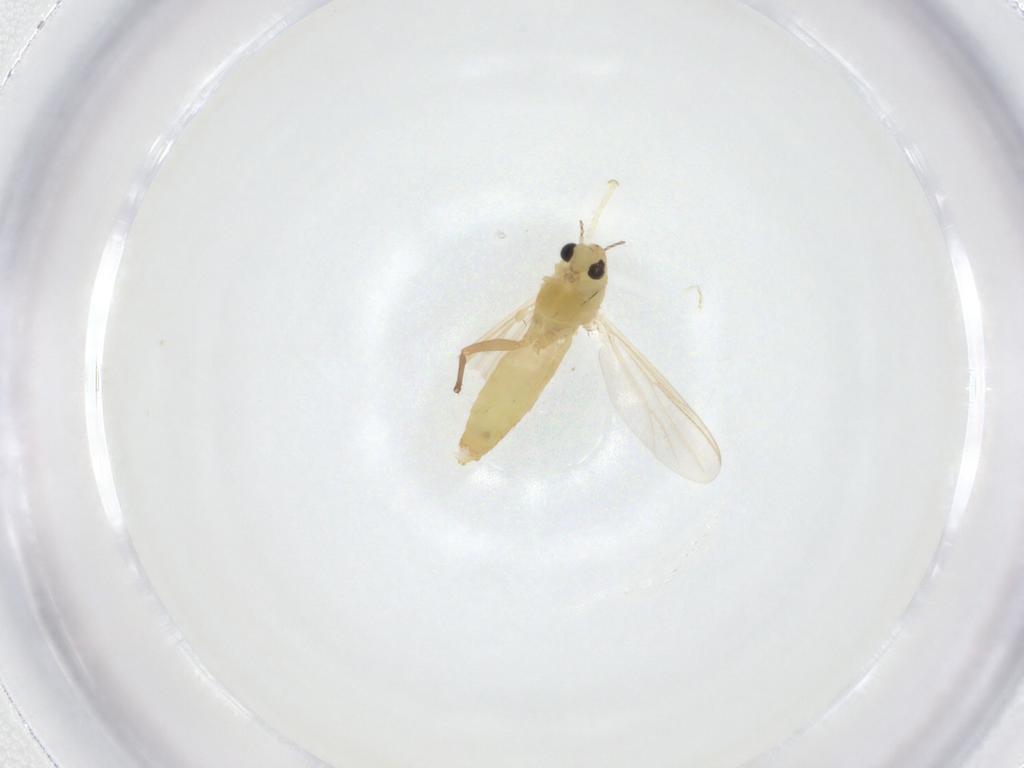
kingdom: Animalia
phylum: Arthropoda
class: Insecta
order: Diptera
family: Chironomidae
